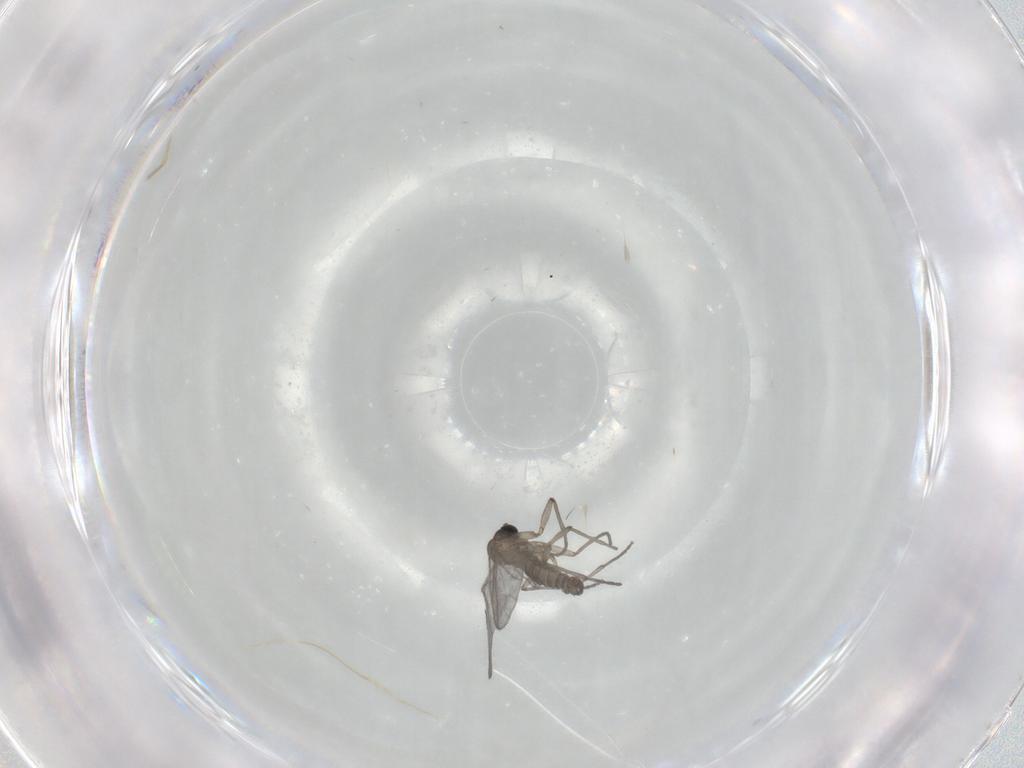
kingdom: Animalia
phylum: Arthropoda
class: Insecta
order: Diptera
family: Sciaridae
